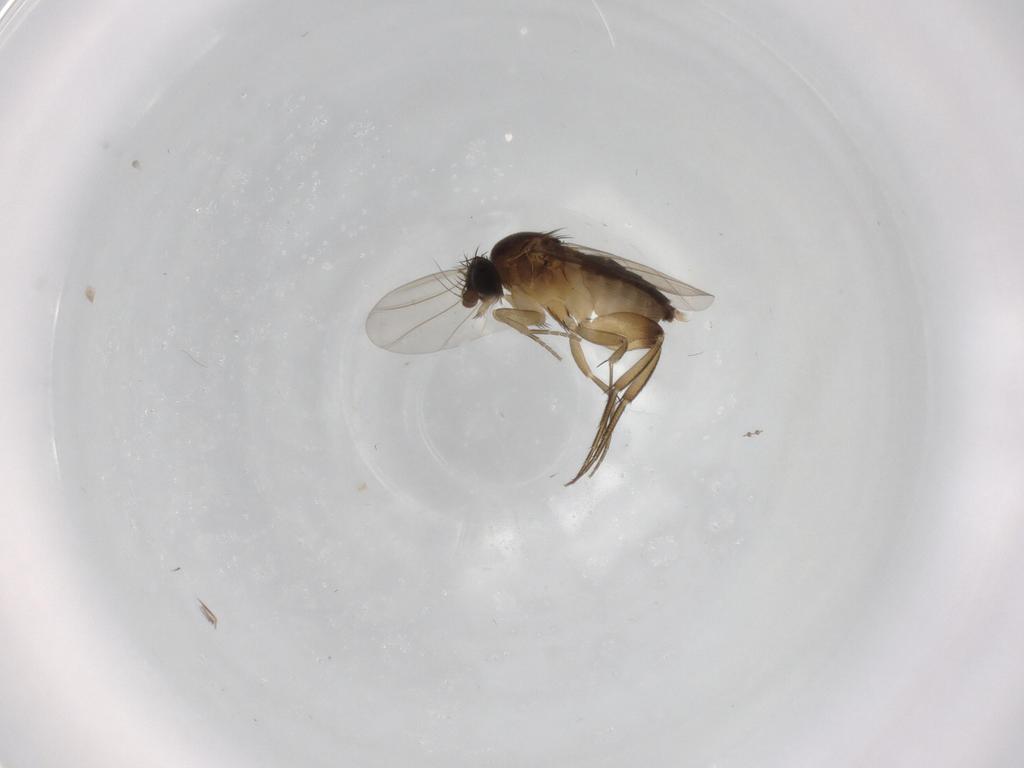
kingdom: Animalia
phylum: Arthropoda
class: Insecta
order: Diptera
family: Phoridae
